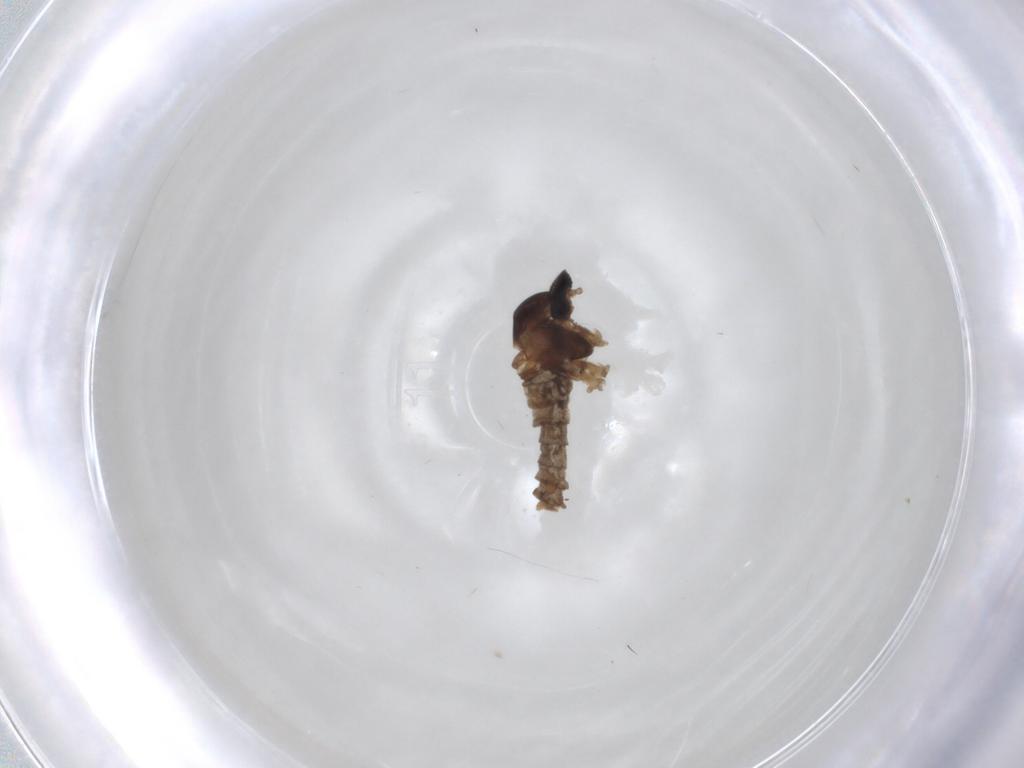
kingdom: Animalia
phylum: Arthropoda
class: Insecta
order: Diptera
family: Cecidomyiidae
